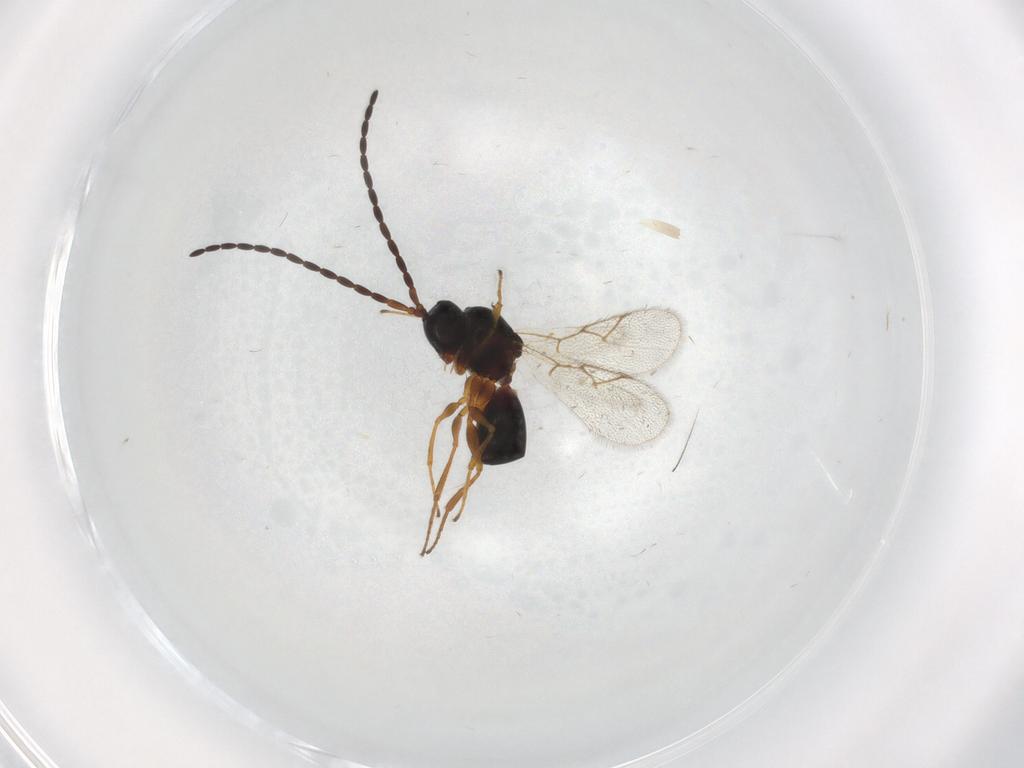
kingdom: Animalia
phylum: Arthropoda
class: Insecta
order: Hymenoptera
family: Figitidae
